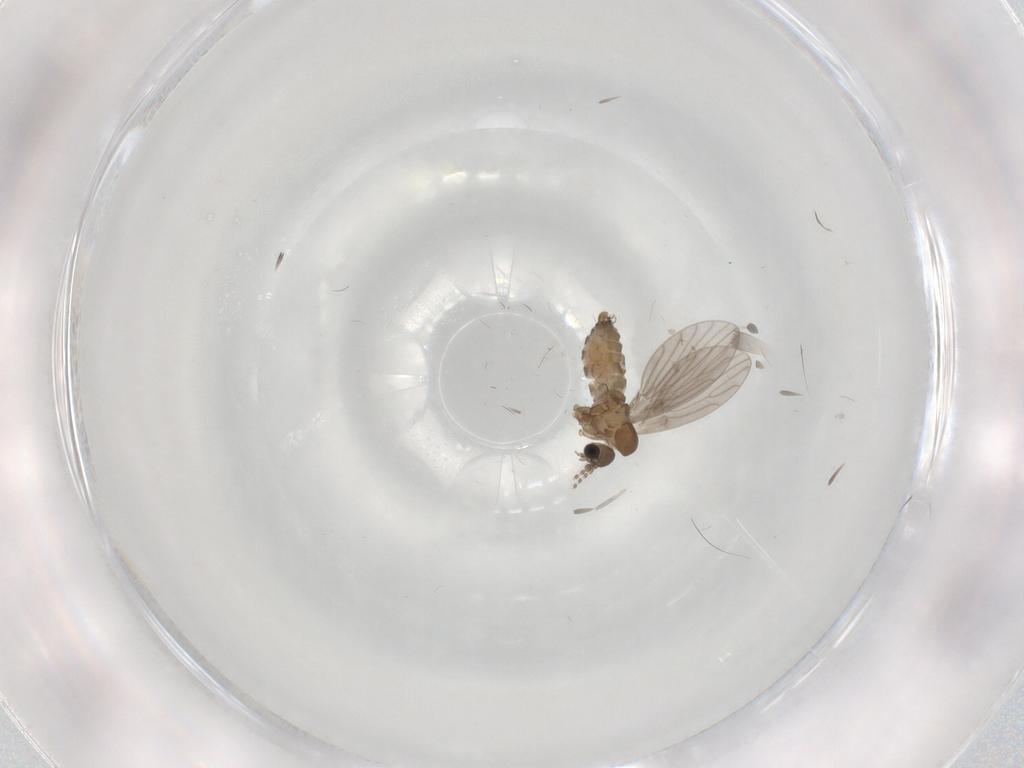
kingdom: Animalia
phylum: Arthropoda
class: Insecta
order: Diptera
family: Psychodidae
